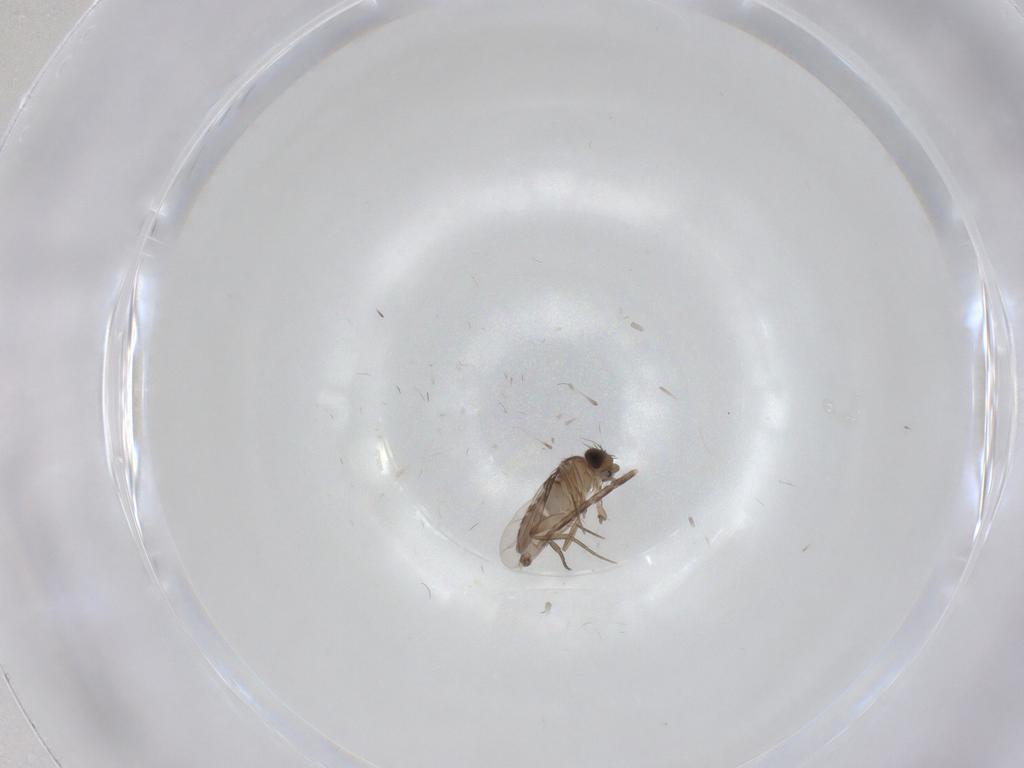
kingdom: Animalia
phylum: Arthropoda
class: Insecta
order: Diptera
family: Phoridae
